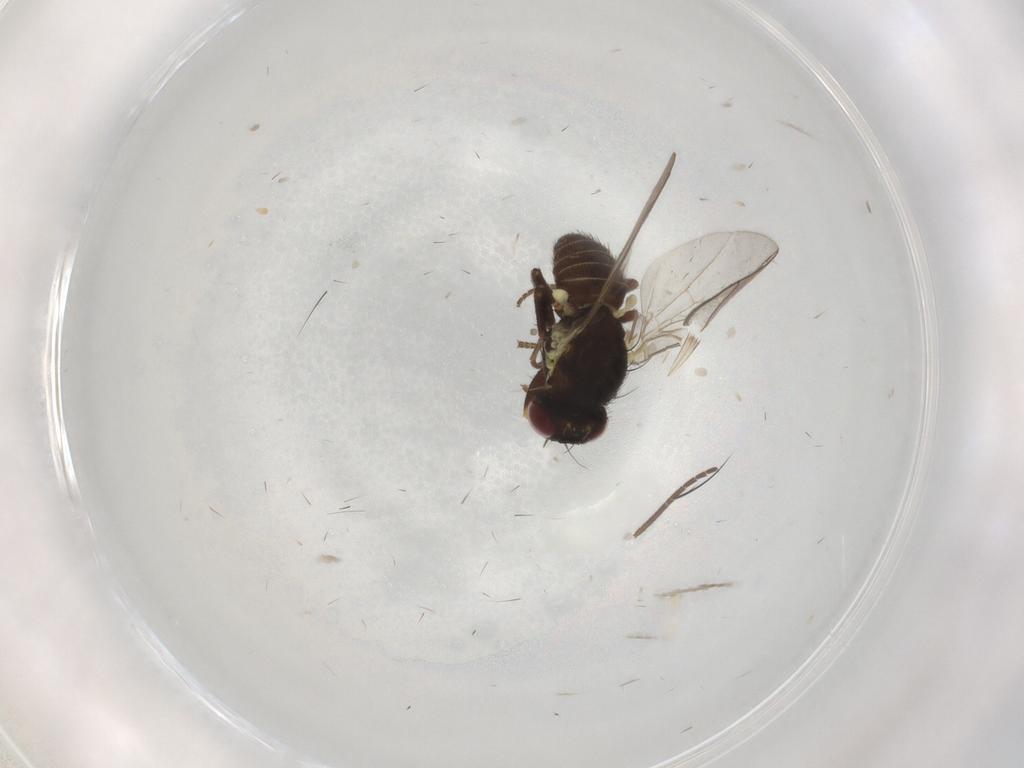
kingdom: Animalia
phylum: Arthropoda
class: Insecta
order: Diptera
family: Agromyzidae
